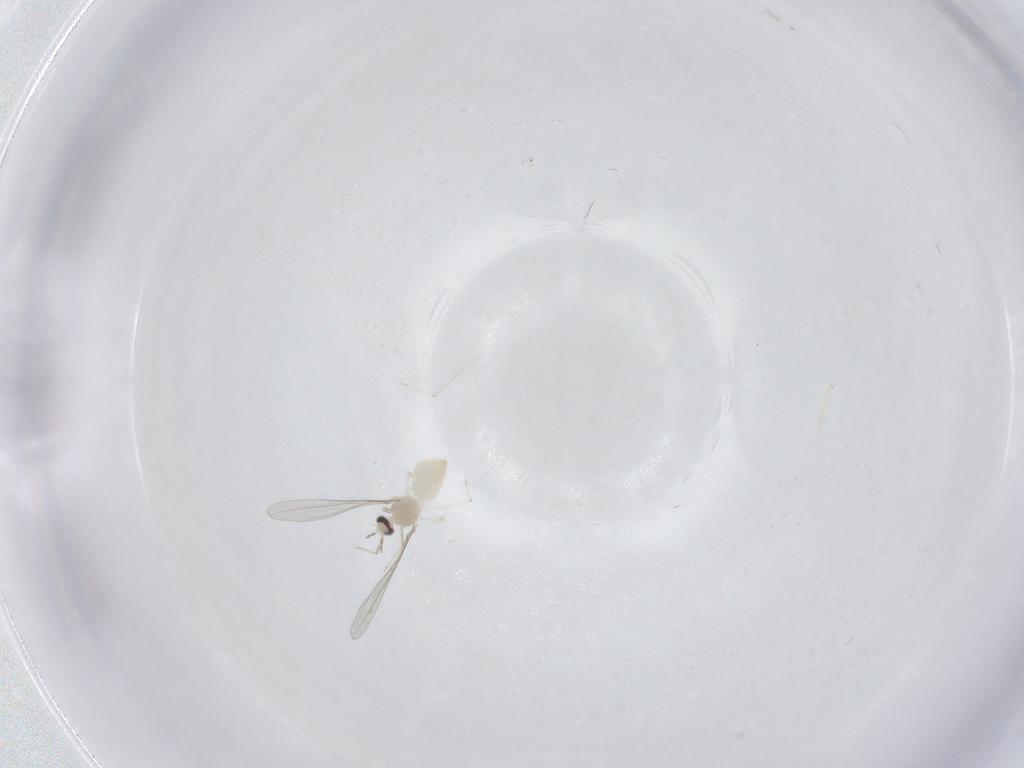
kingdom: Animalia
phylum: Arthropoda
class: Insecta
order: Diptera
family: Cecidomyiidae
